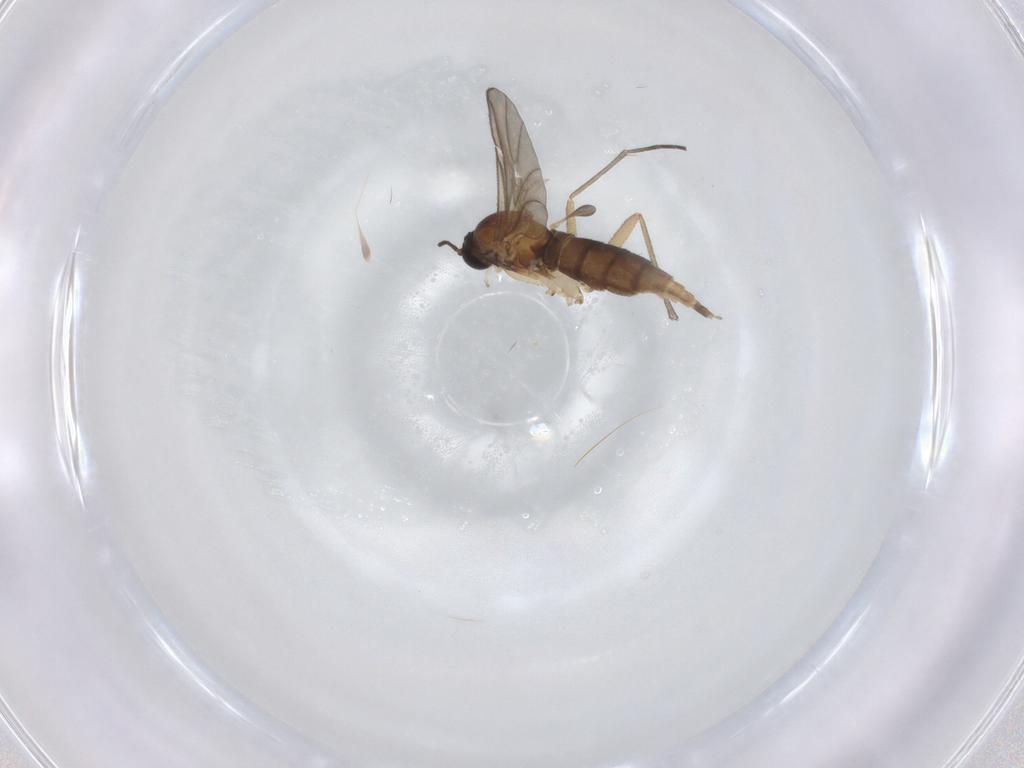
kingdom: Animalia
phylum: Arthropoda
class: Insecta
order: Diptera
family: Sciaridae
